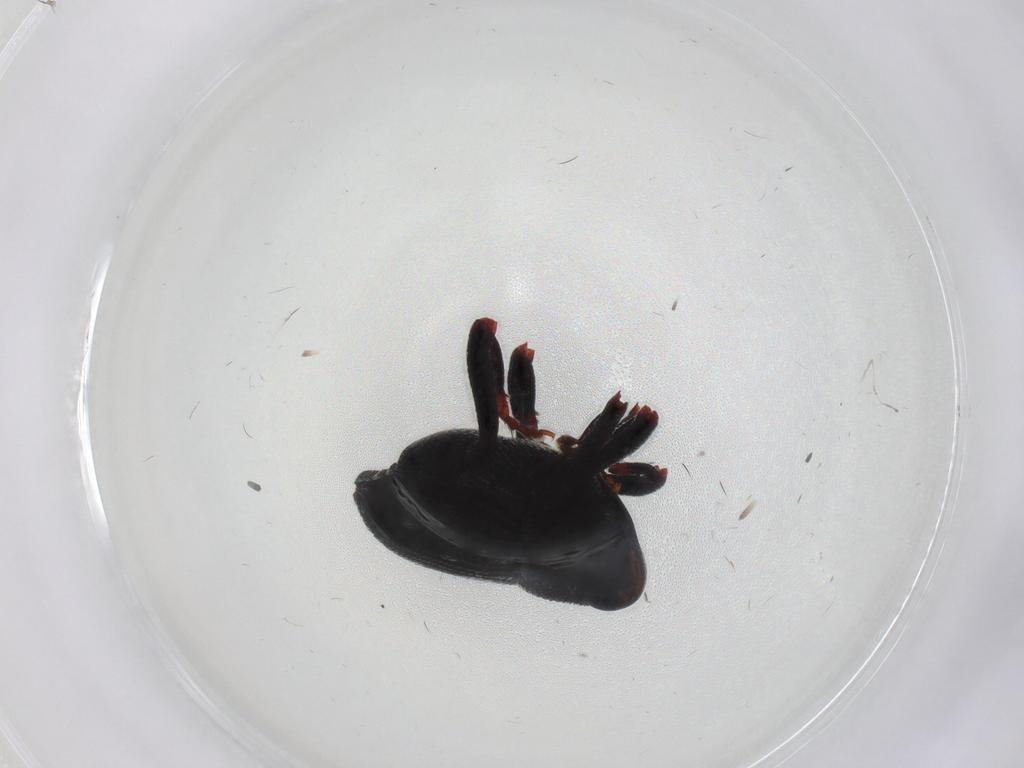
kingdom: Animalia
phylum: Arthropoda
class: Insecta
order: Coleoptera
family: Curculionidae
